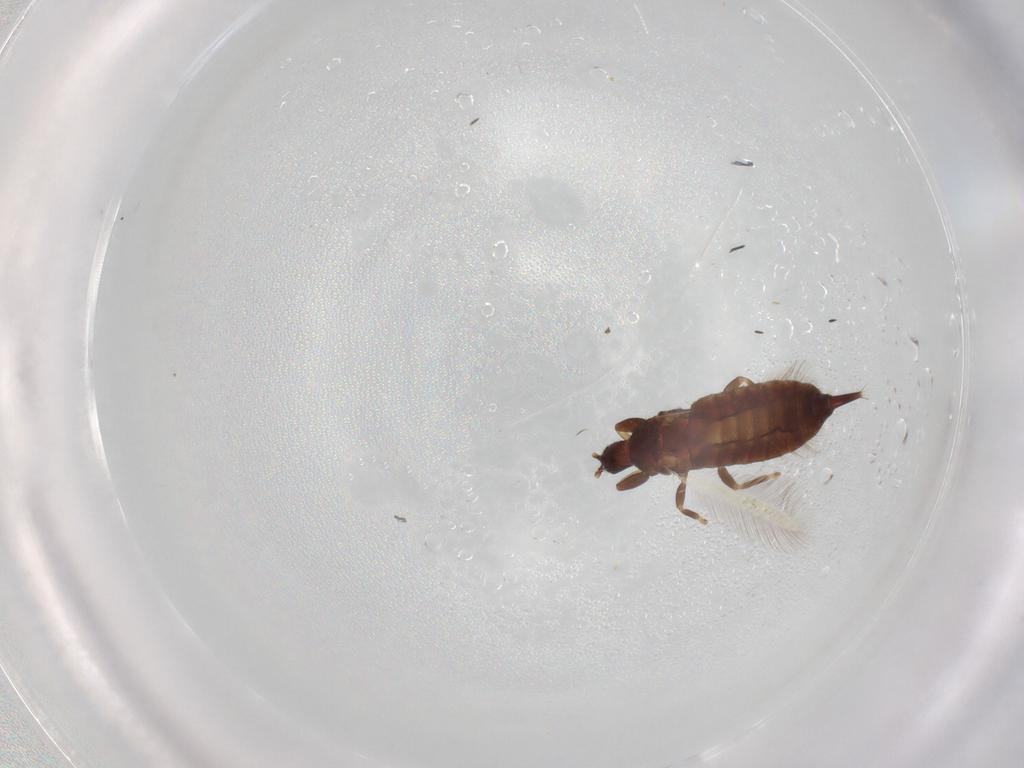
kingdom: Animalia
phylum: Arthropoda
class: Insecta
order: Thysanoptera
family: Phlaeothripidae
